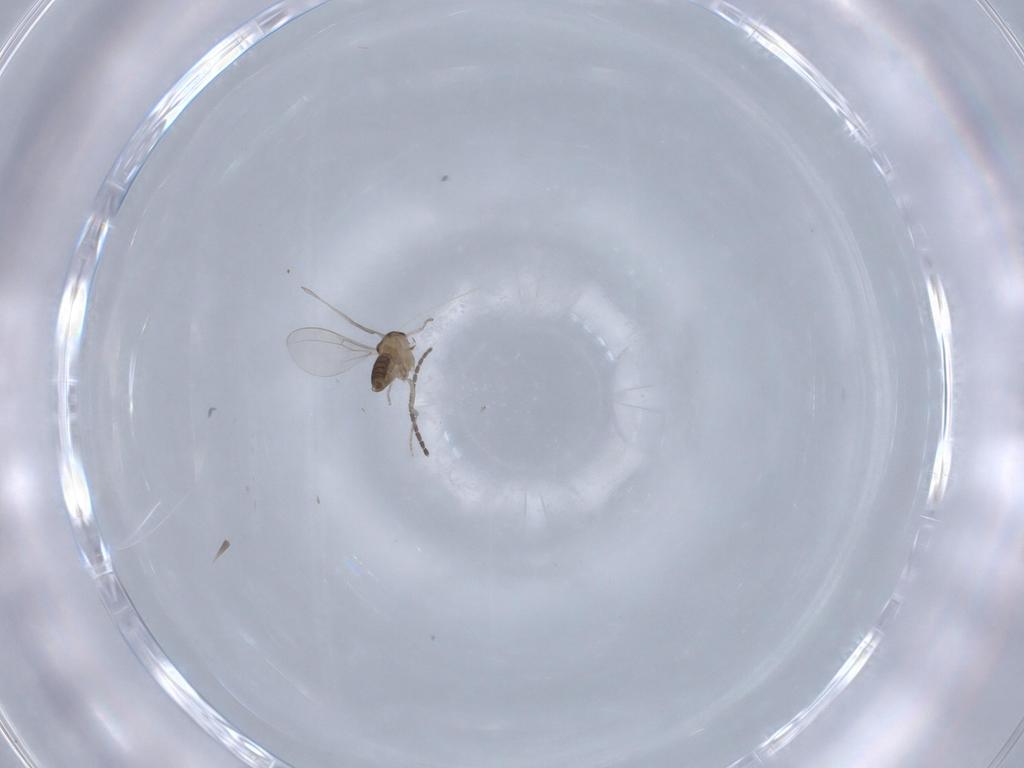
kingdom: Animalia
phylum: Arthropoda
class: Insecta
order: Diptera
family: Cecidomyiidae
